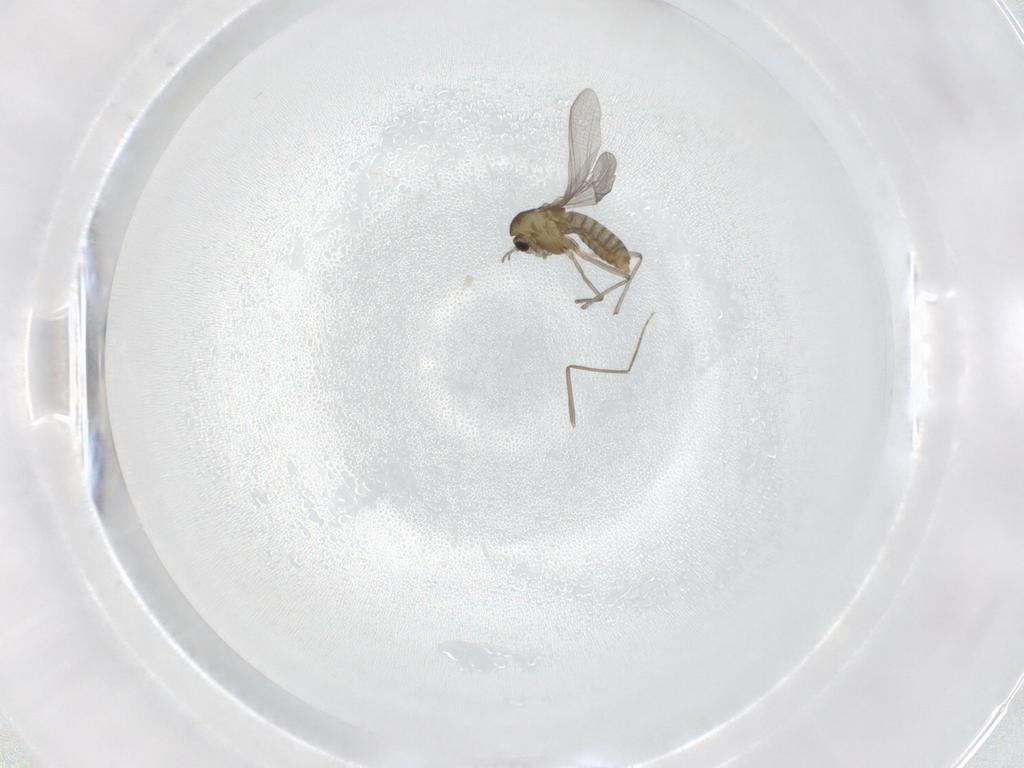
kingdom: Animalia
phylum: Arthropoda
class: Insecta
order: Diptera
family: Chironomidae
